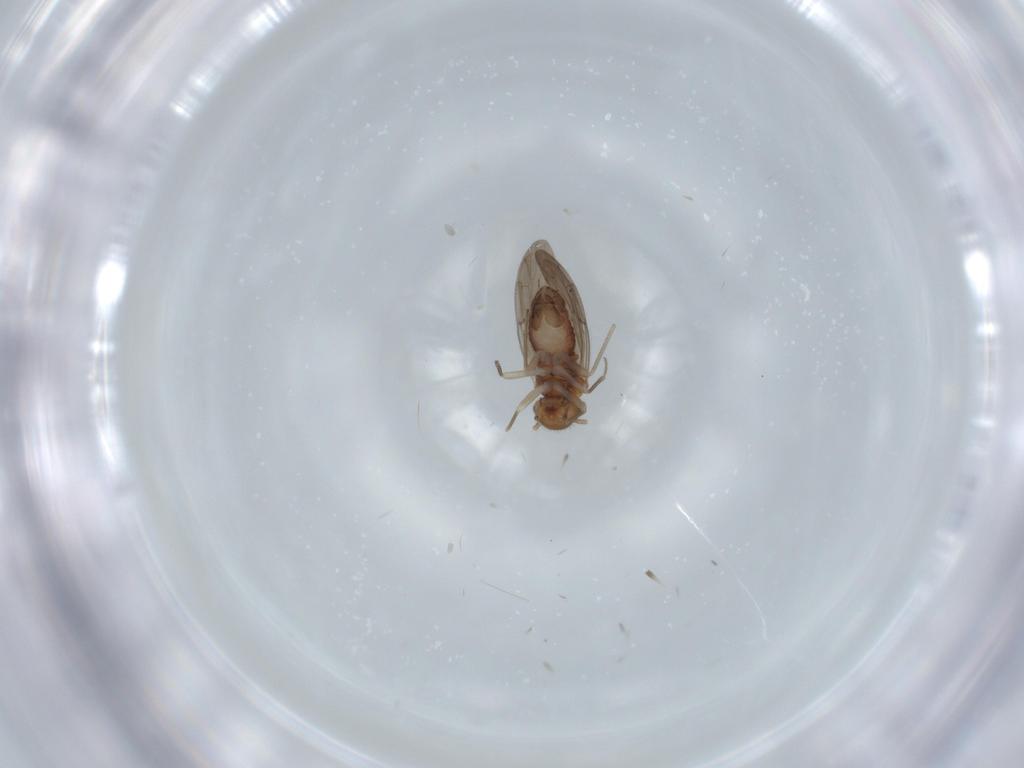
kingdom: Animalia
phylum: Arthropoda
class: Insecta
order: Psocodea
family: Ectopsocidae
